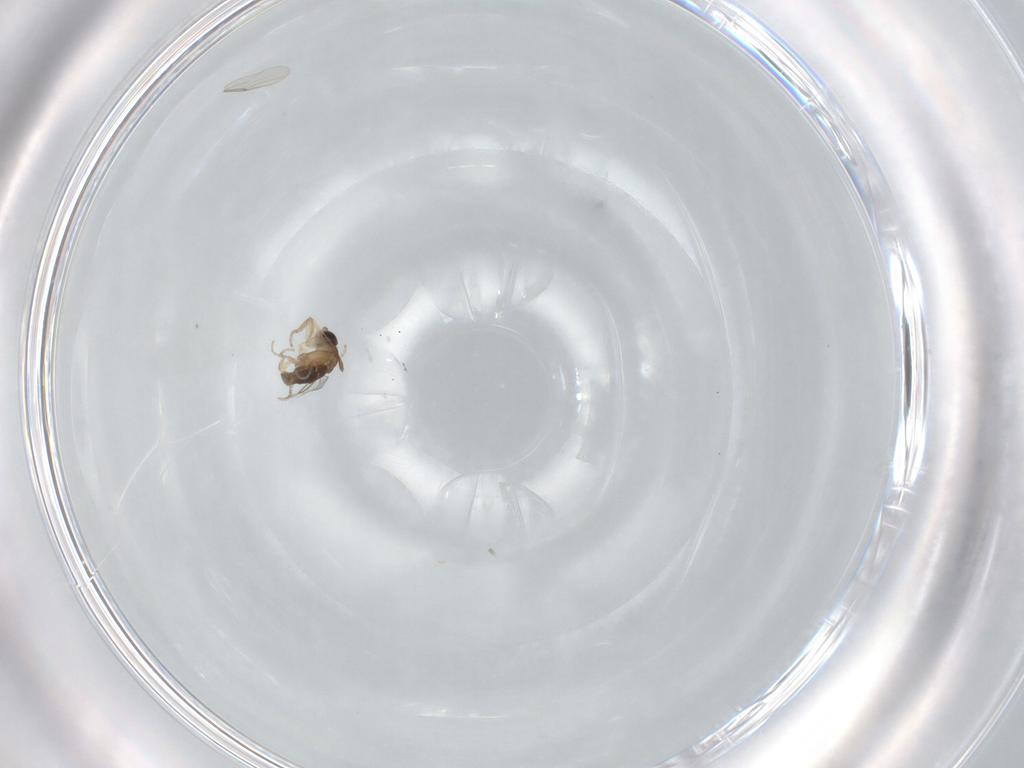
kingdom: Animalia
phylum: Arthropoda
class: Insecta
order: Diptera
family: Phoridae
